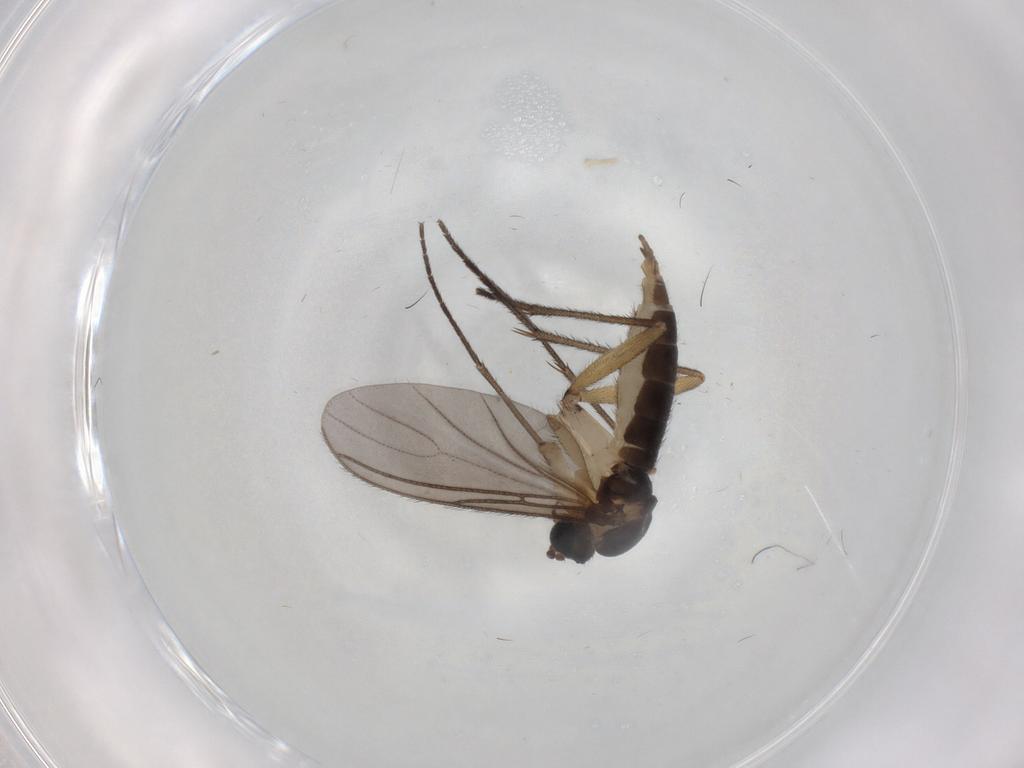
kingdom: Animalia
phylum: Arthropoda
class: Insecta
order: Diptera
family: Sciaridae
